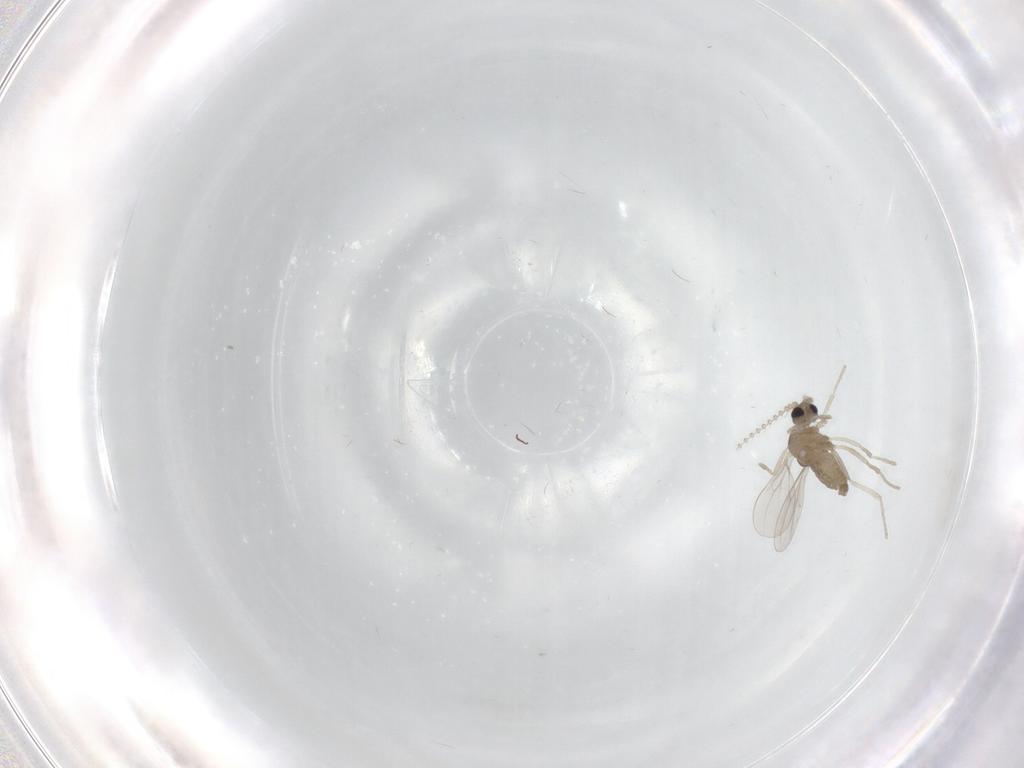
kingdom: Animalia
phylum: Arthropoda
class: Insecta
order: Diptera
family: Cecidomyiidae
